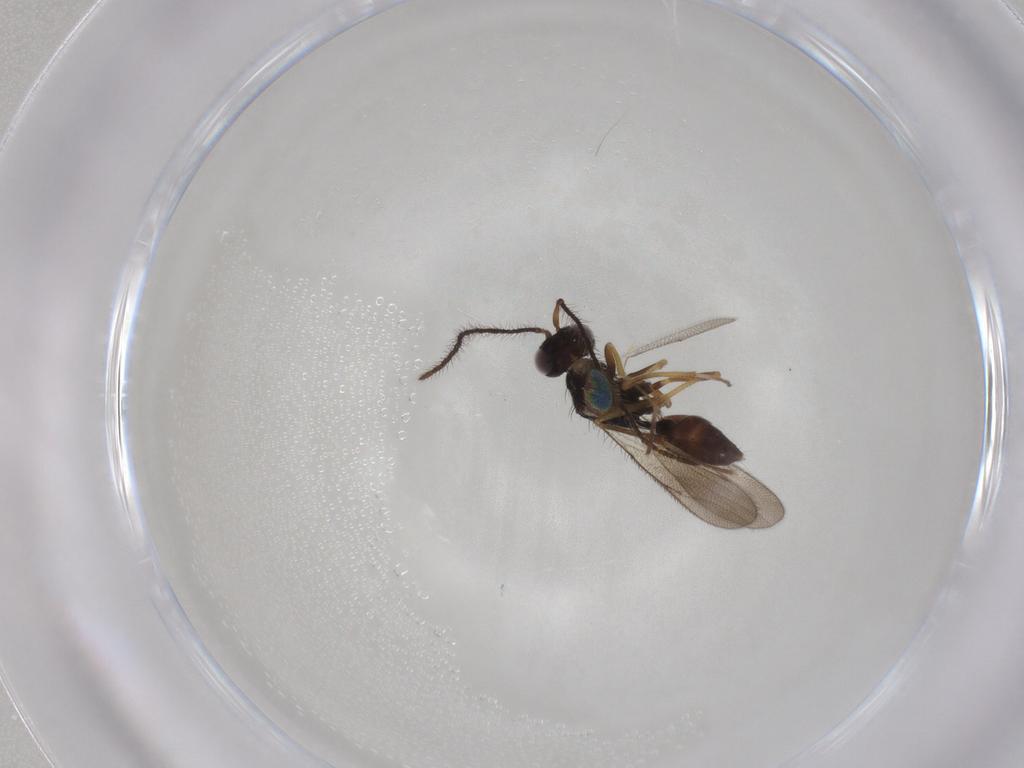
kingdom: Animalia
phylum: Arthropoda
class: Insecta
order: Hymenoptera
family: Diparidae
